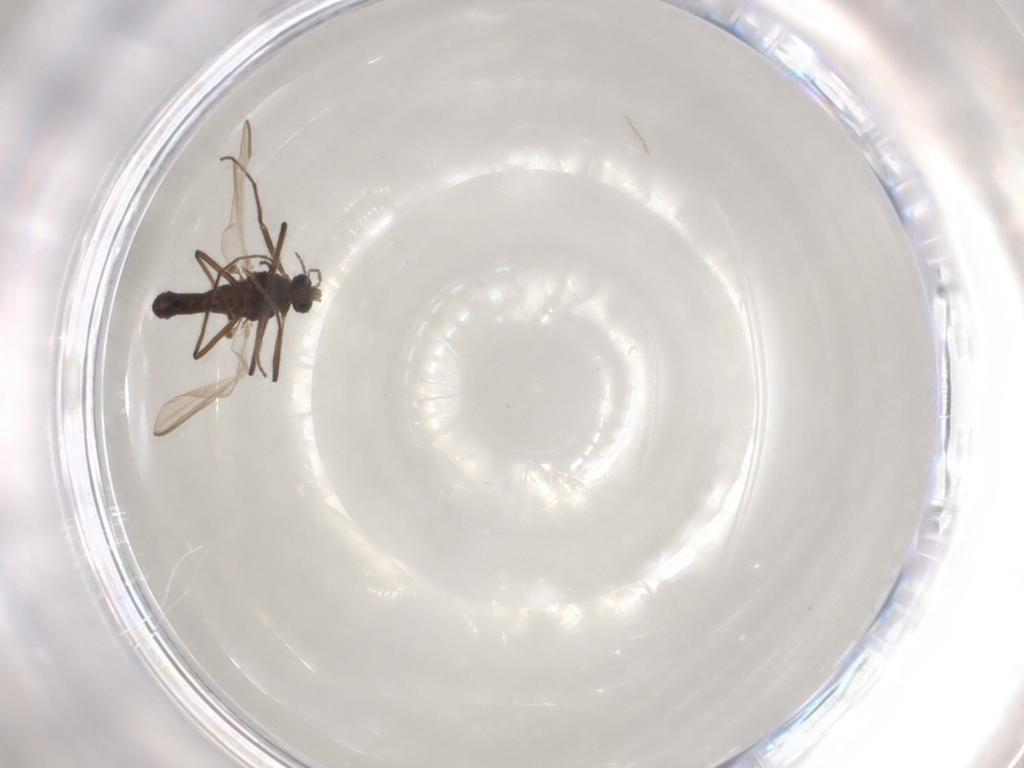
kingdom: Animalia
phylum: Arthropoda
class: Insecta
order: Diptera
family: Chironomidae
